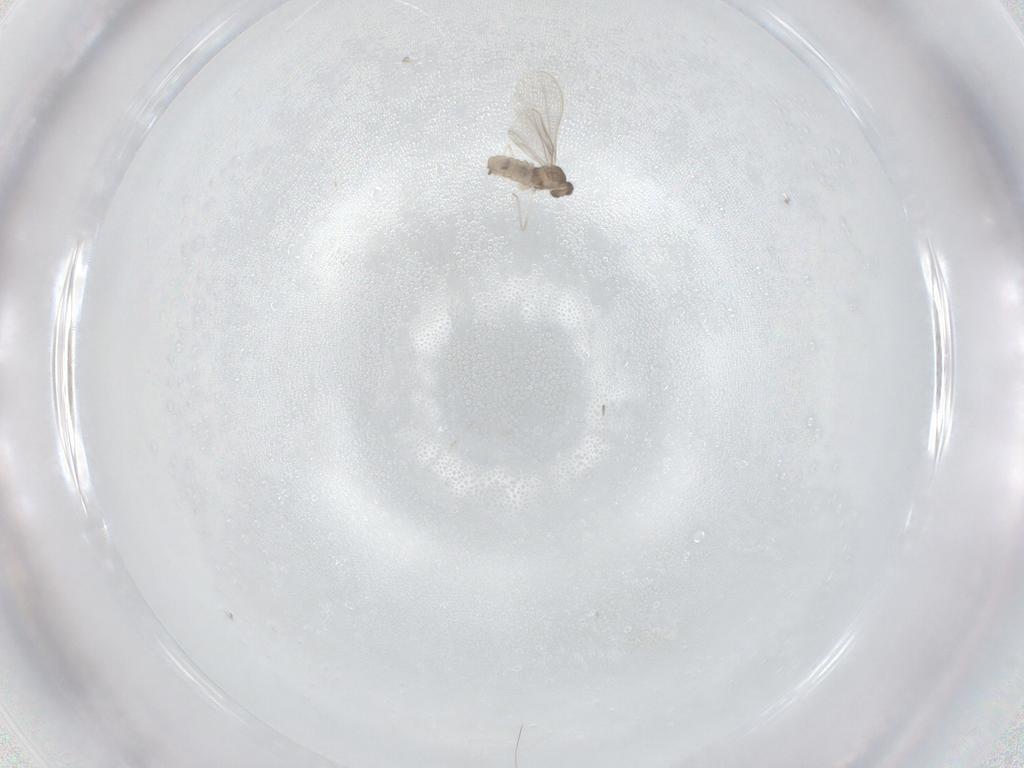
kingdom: Animalia
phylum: Arthropoda
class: Insecta
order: Diptera
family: Cecidomyiidae
